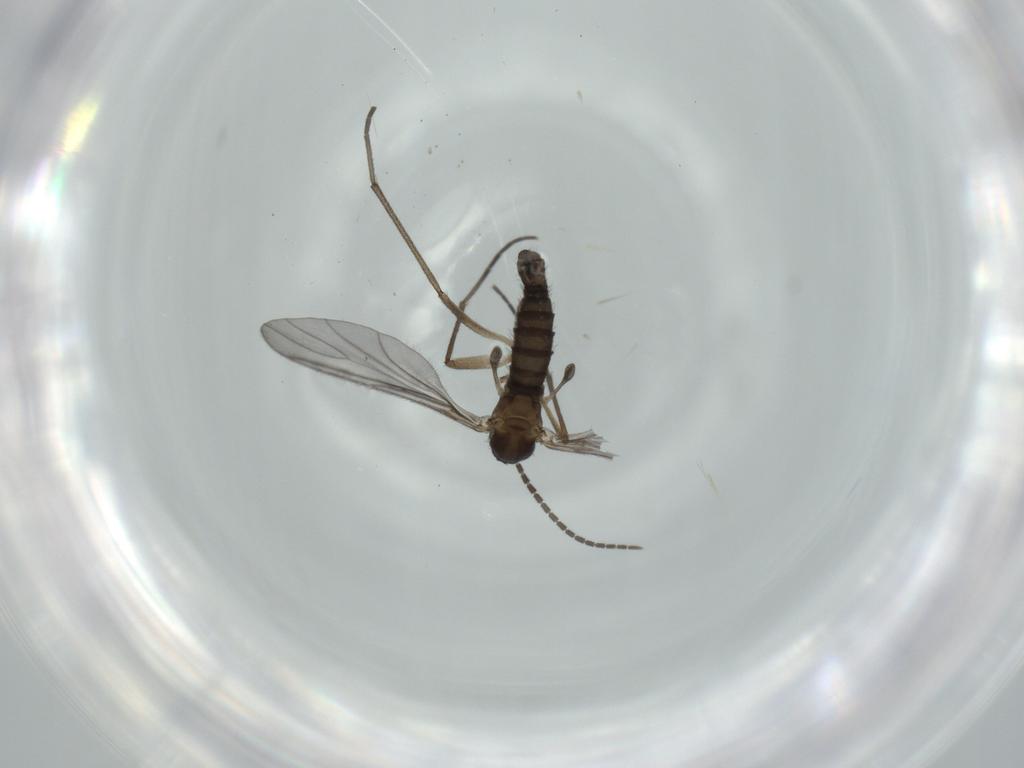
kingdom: Animalia
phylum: Arthropoda
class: Insecta
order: Diptera
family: Sciaridae
